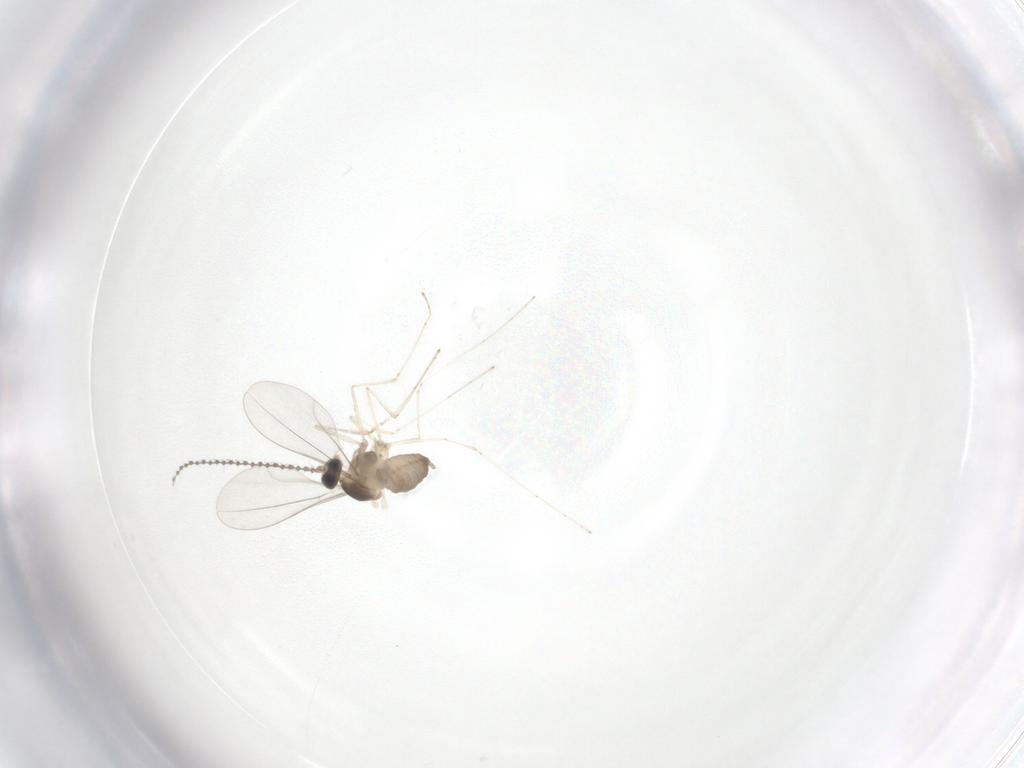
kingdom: Animalia
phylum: Arthropoda
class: Insecta
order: Diptera
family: Cecidomyiidae
